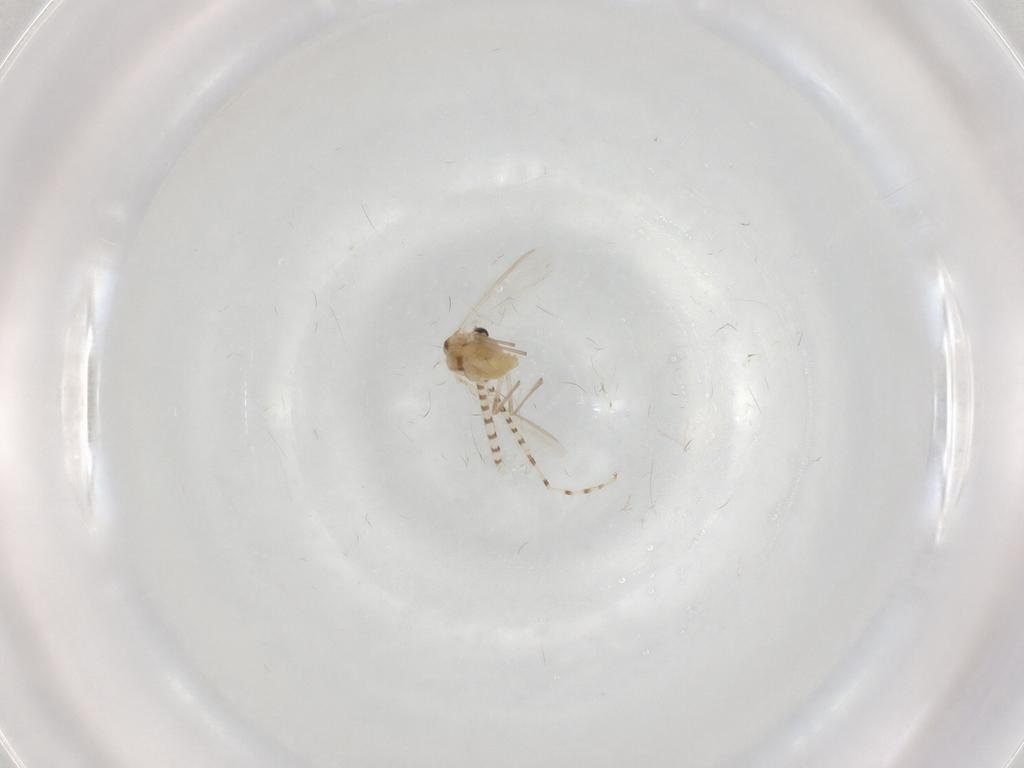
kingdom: Animalia
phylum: Arthropoda
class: Insecta
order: Diptera
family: Chironomidae
